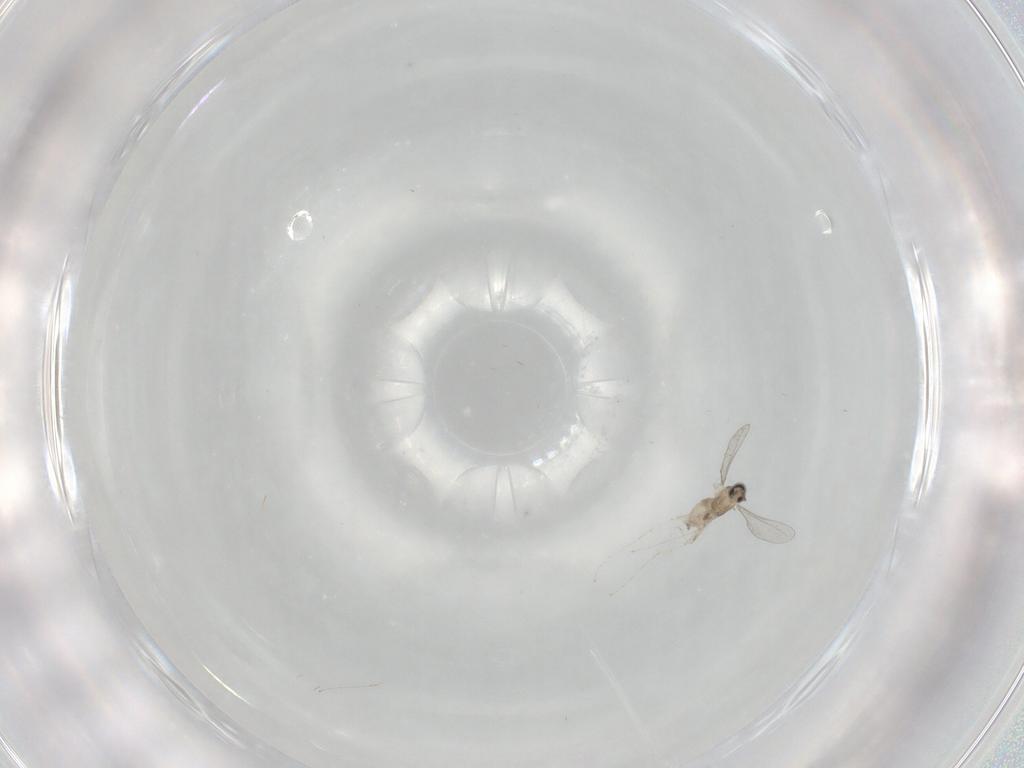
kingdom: Animalia
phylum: Arthropoda
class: Insecta
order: Diptera
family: Cecidomyiidae
